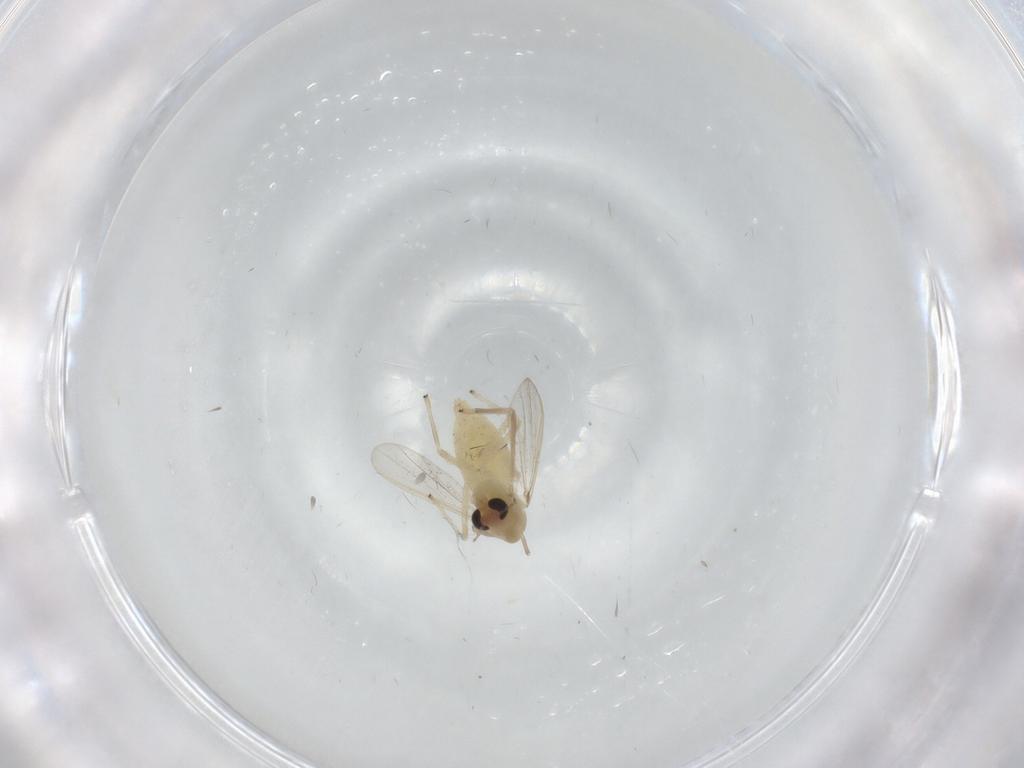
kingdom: Animalia
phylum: Arthropoda
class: Insecta
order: Diptera
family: Chironomidae
